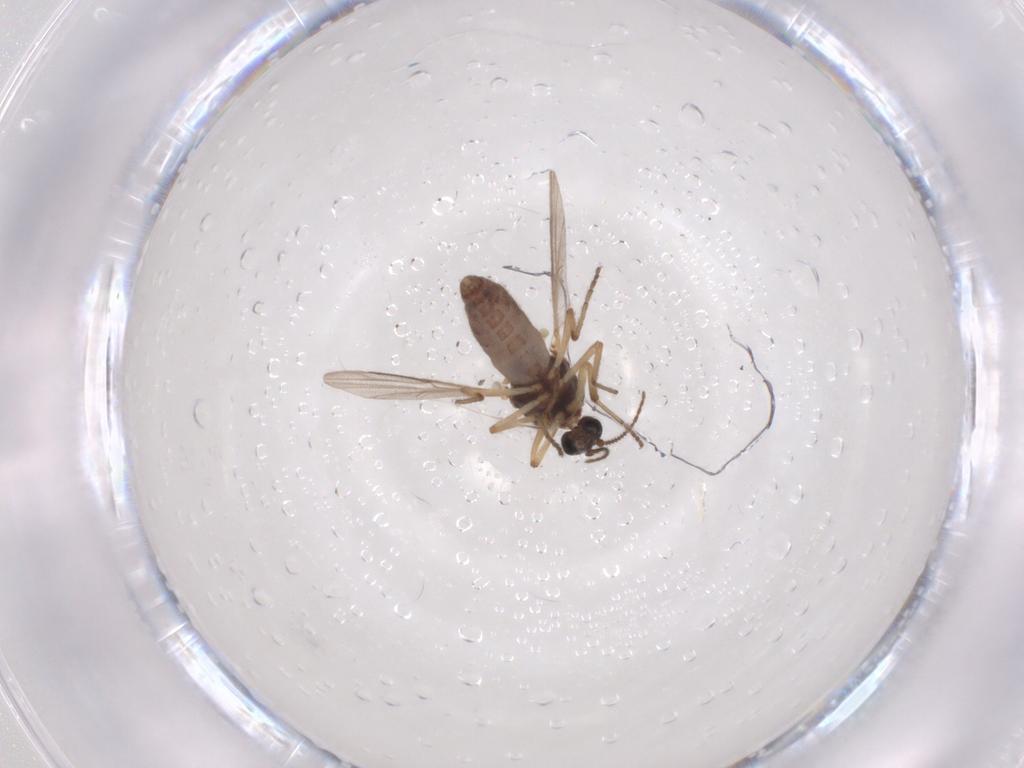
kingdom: Animalia
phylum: Arthropoda
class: Insecta
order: Diptera
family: Ceratopogonidae
